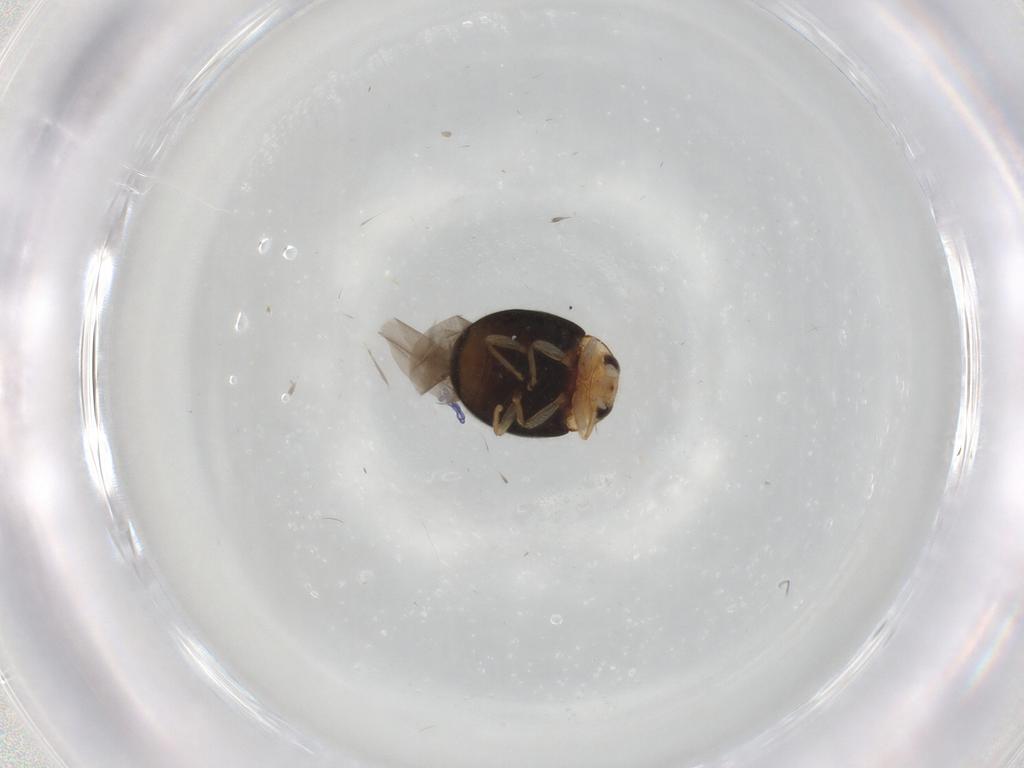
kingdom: Animalia
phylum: Arthropoda
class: Insecta
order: Coleoptera
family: Coccinellidae
